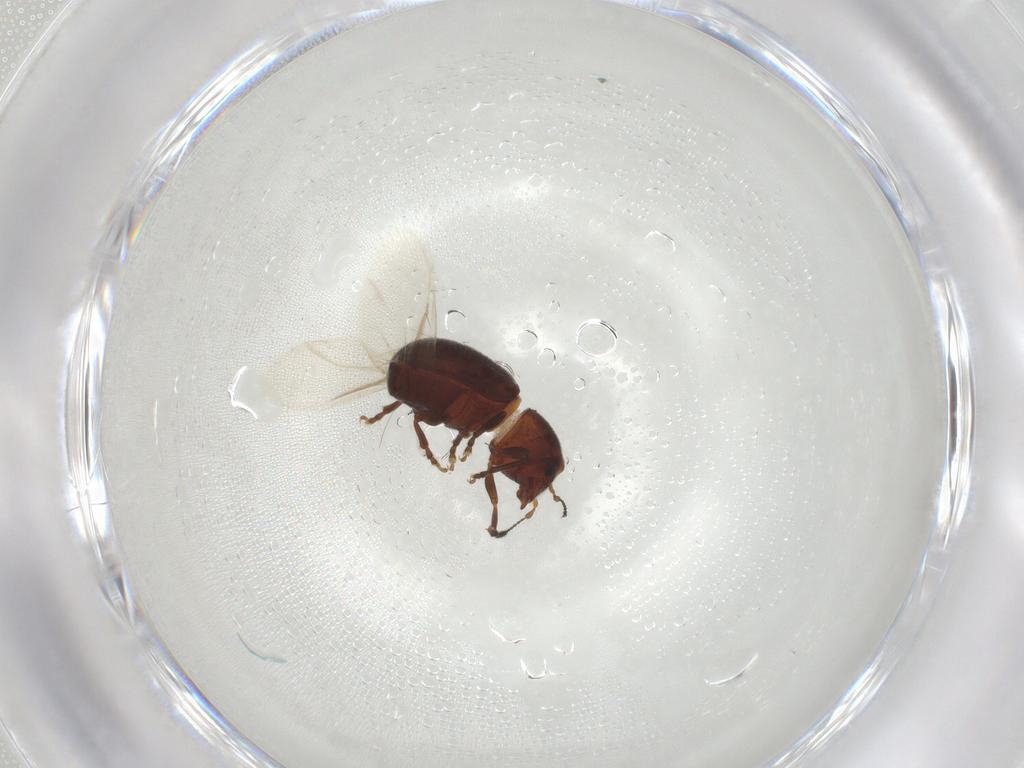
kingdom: Animalia
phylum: Arthropoda
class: Insecta
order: Coleoptera
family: Anthribidae
